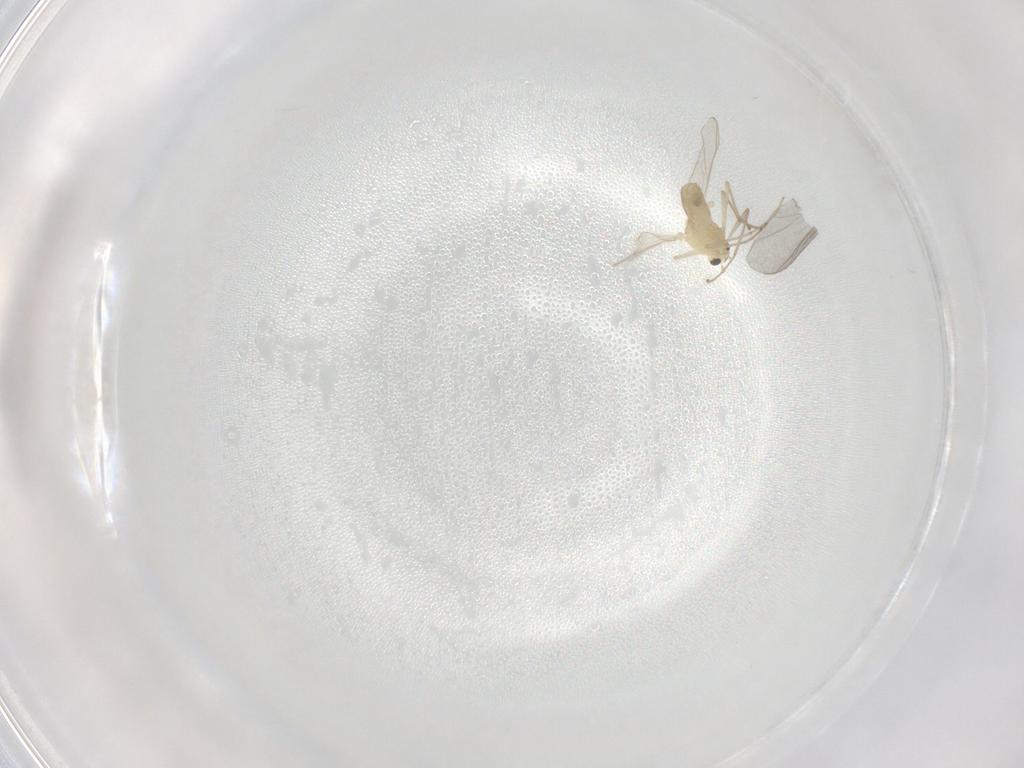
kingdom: Animalia
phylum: Arthropoda
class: Insecta
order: Diptera
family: Chironomidae
